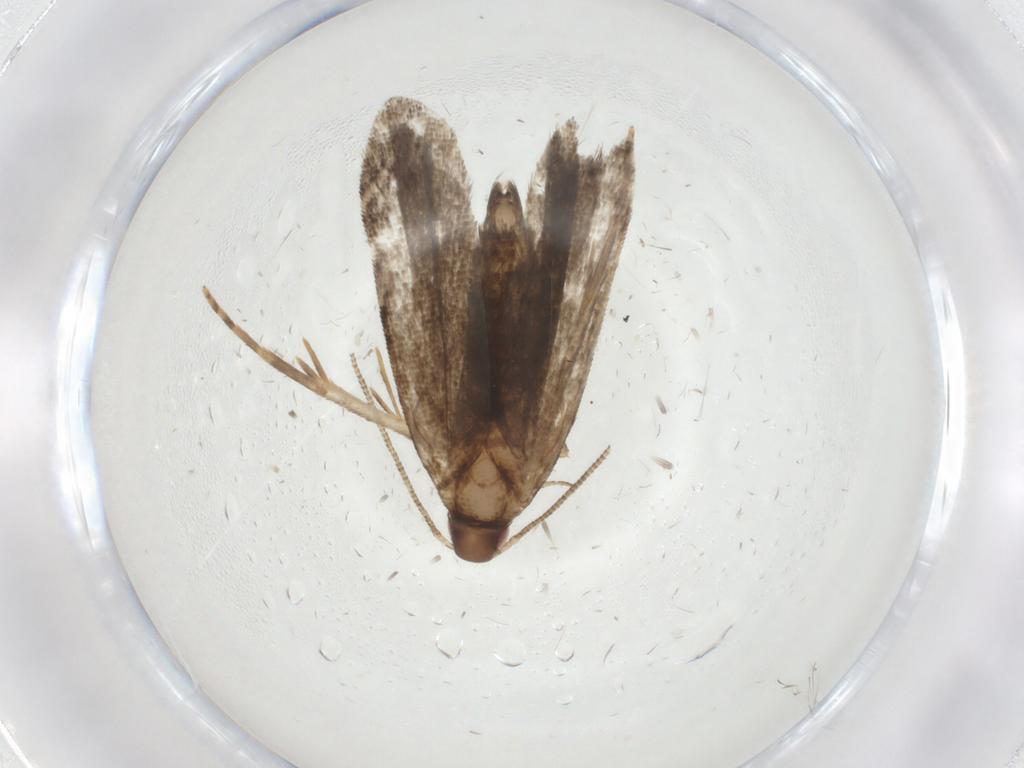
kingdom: Animalia
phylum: Arthropoda
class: Insecta
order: Lepidoptera
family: Gelechiidae
